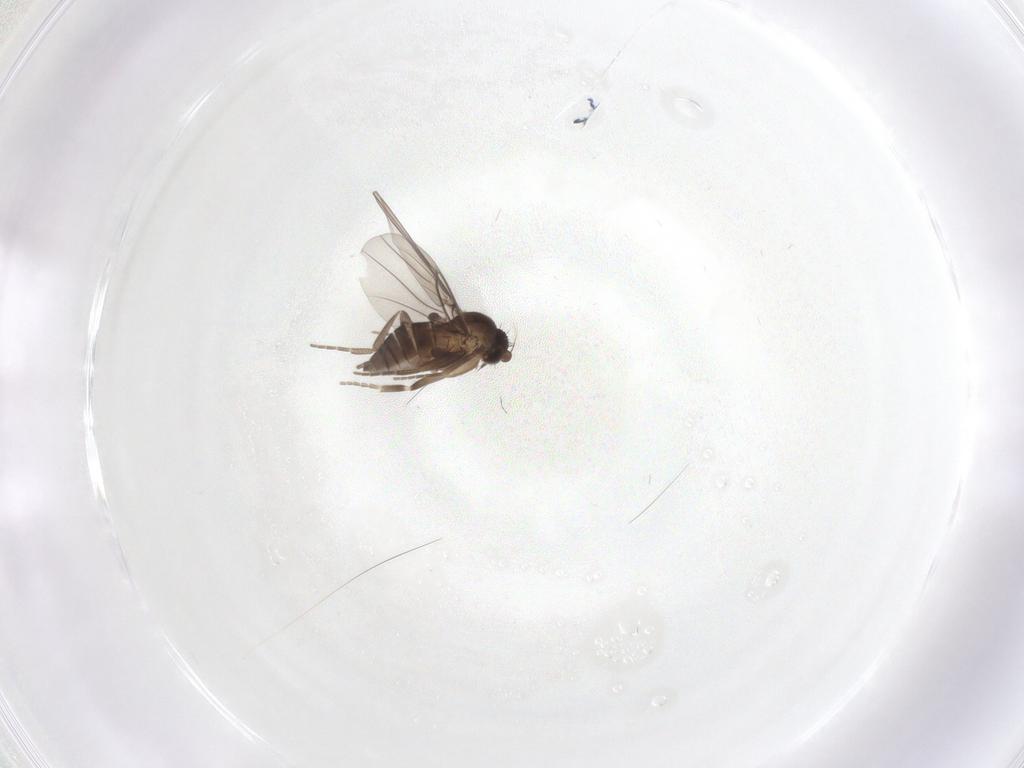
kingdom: Animalia
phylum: Arthropoda
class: Insecta
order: Diptera
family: Phoridae
